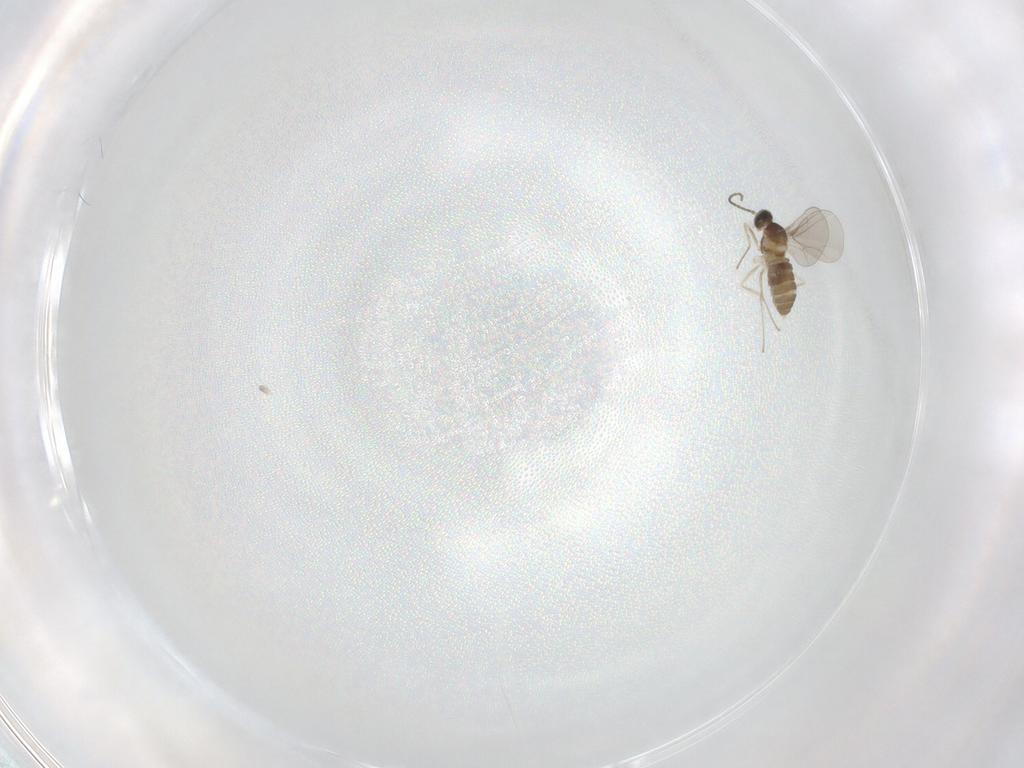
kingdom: Animalia
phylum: Arthropoda
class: Insecta
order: Diptera
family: Cecidomyiidae
